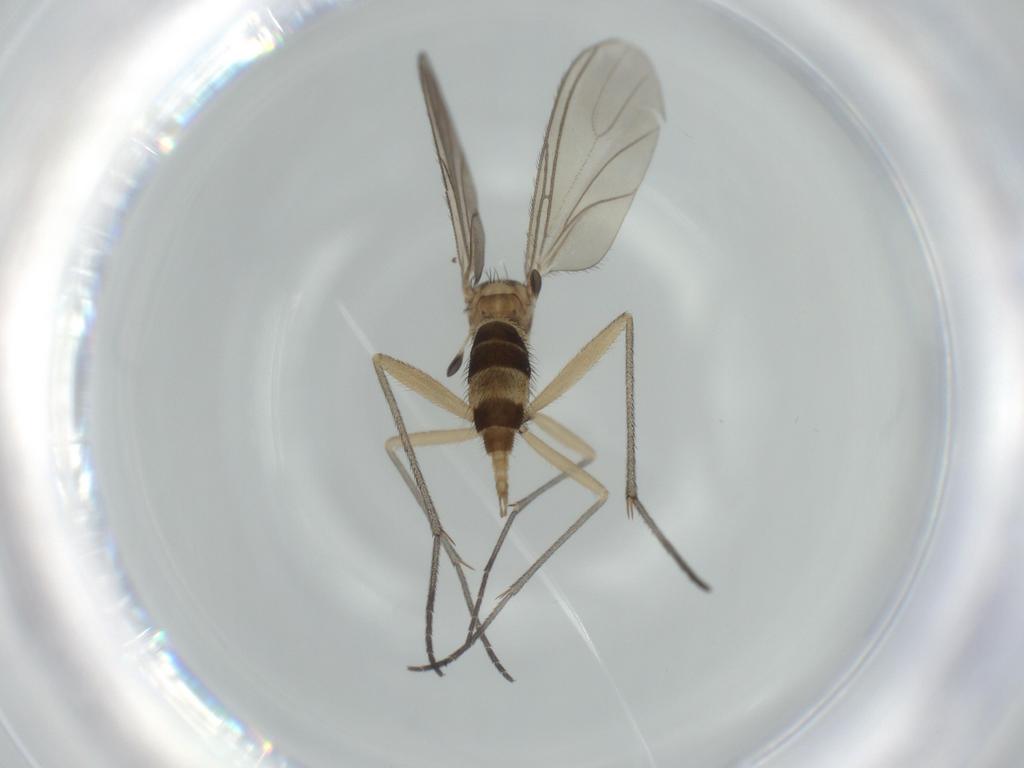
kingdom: Animalia
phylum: Arthropoda
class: Insecta
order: Diptera
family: Sciaridae
